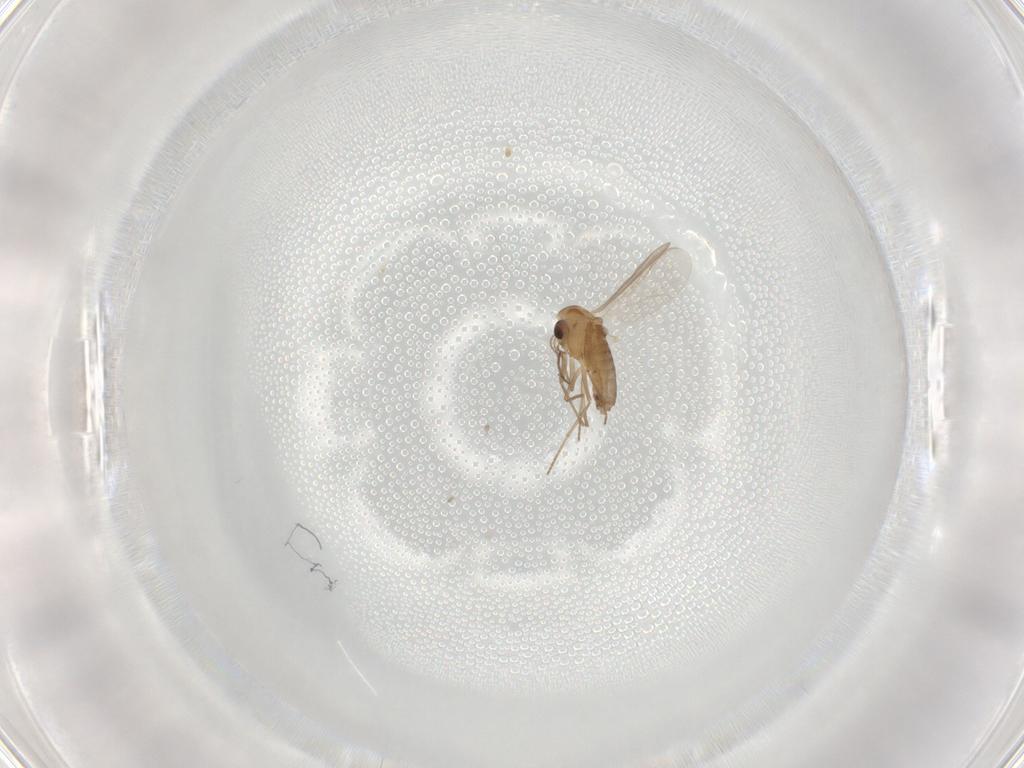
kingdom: Animalia
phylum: Arthropoda
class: Insecta
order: Diptera
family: Chironomidae
